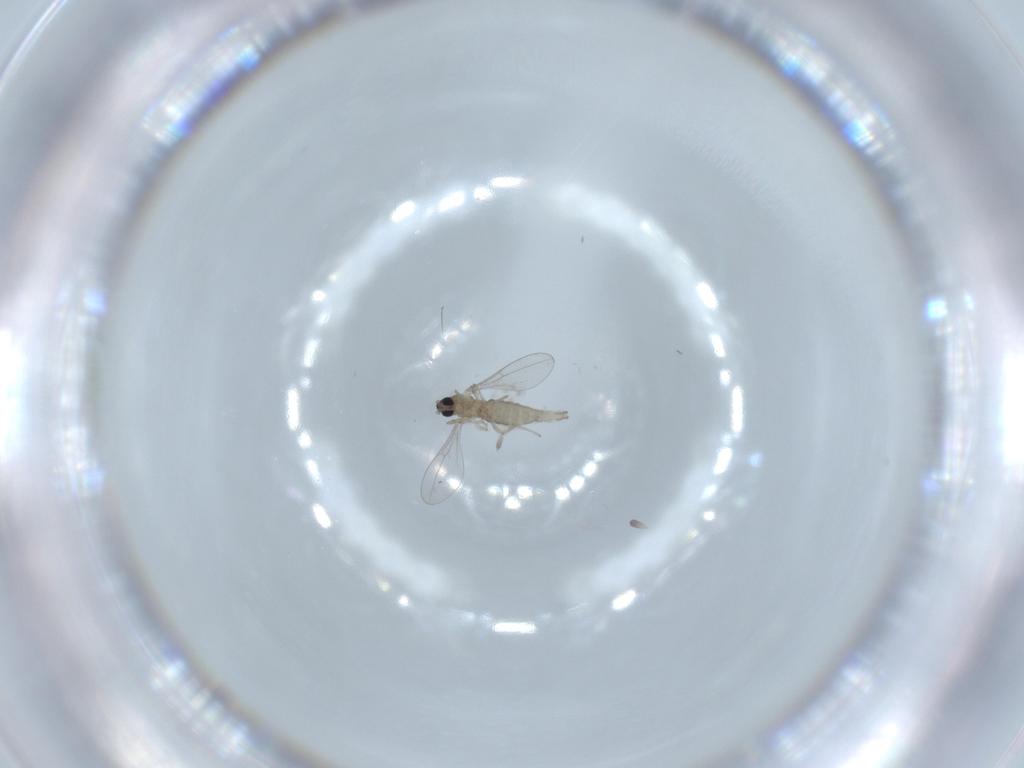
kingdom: Animalia
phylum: Arthropoda
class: Insecta
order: Diptera
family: Cecidomyiidae
